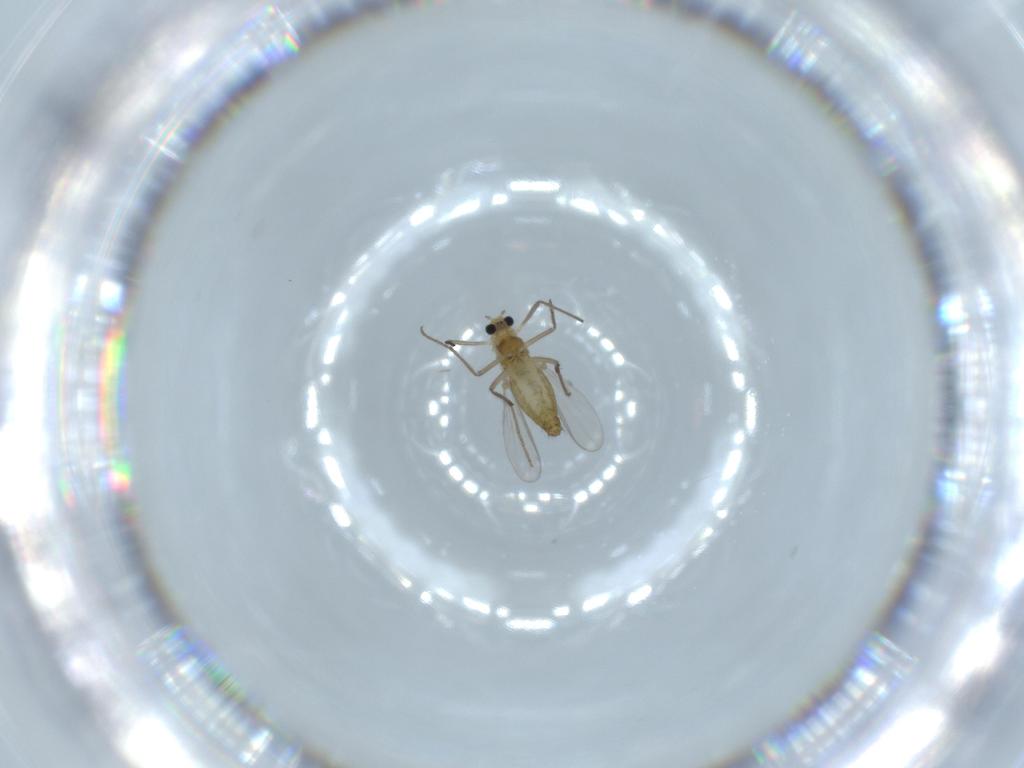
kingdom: Animalia
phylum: Arthropoda
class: Insecta
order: Diptera
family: Chironomidae
